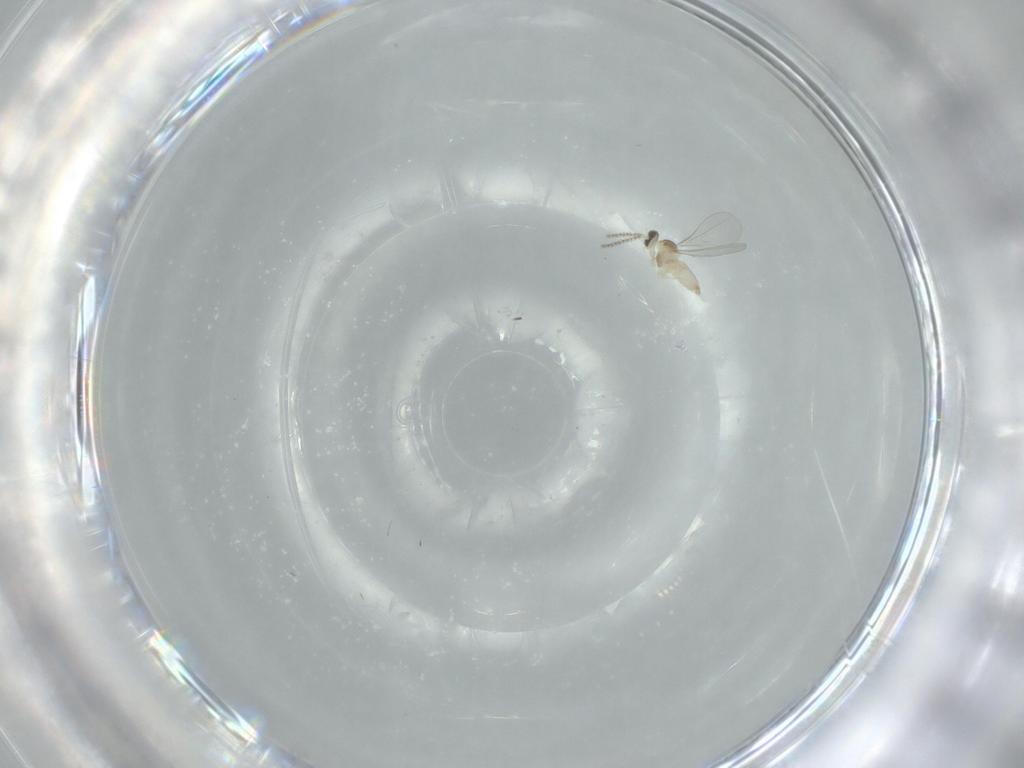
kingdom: Animalia
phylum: Arthropoda
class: Insecta
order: Diptera
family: Cecidomyiidae
